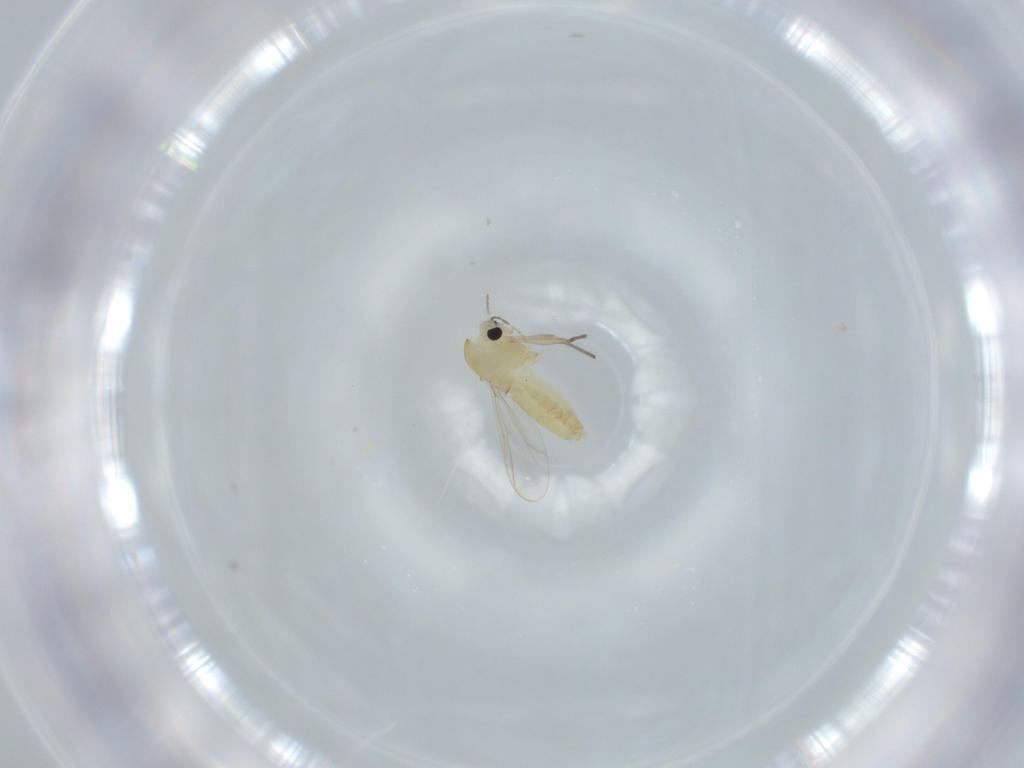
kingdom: Animalia
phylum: Arthropoda
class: Insecta
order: Diptera
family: Chironomidae
